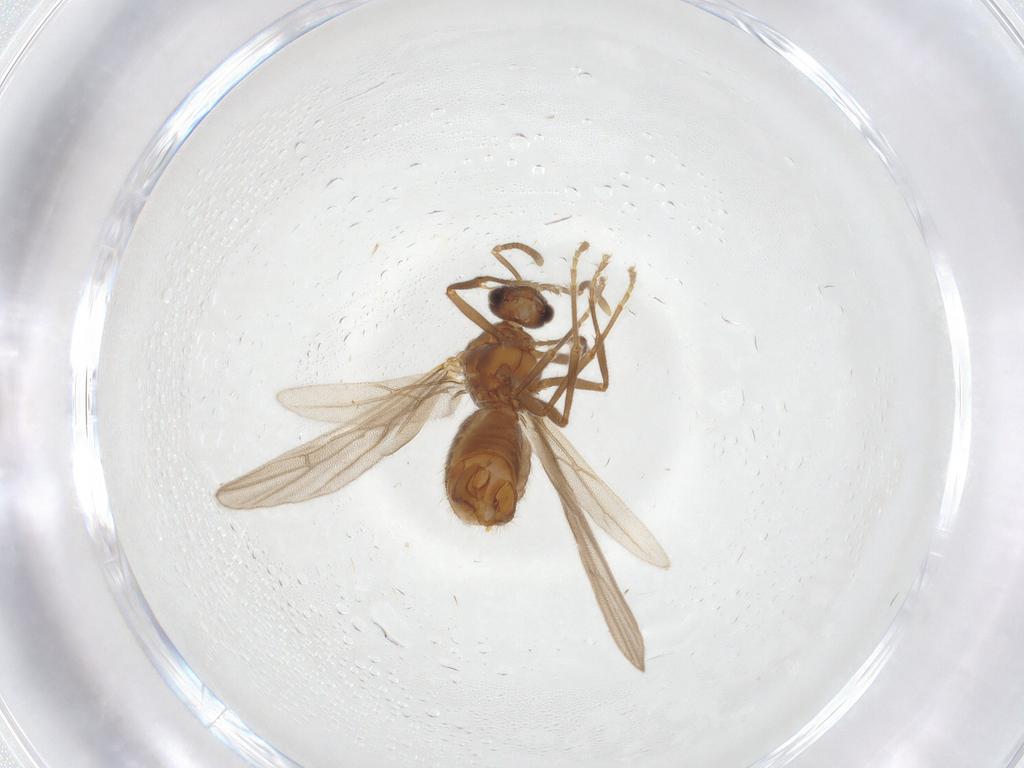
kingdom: Animalia
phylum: Arthropoda
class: Insecta
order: Hymenoptera
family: Formicidae
